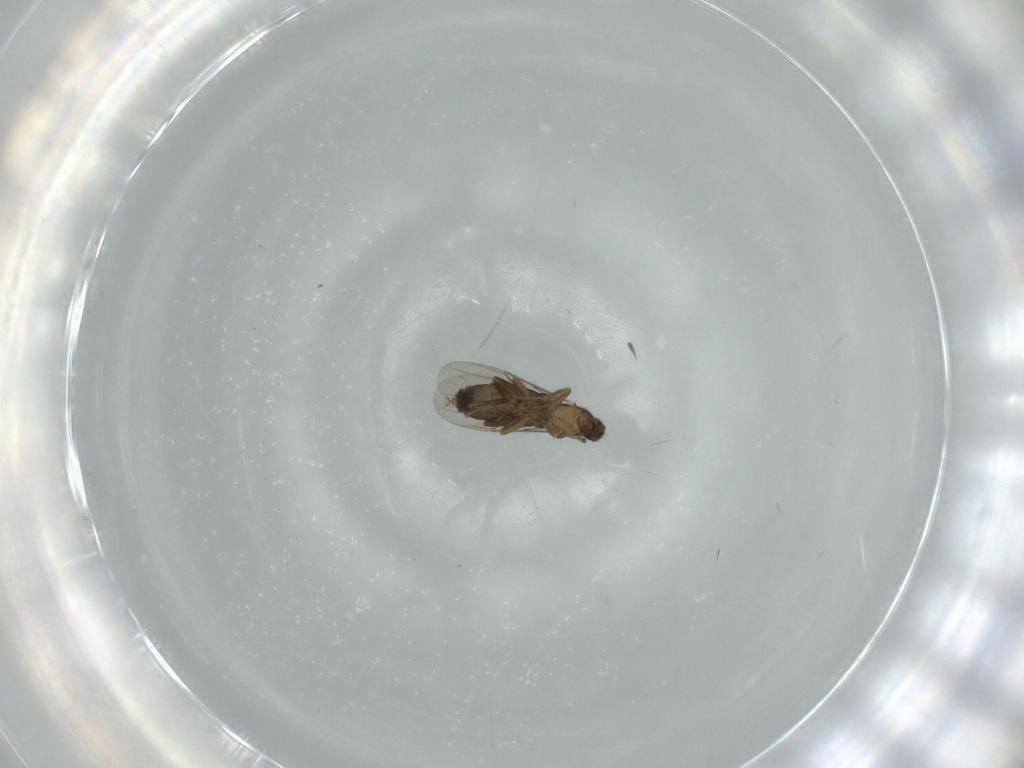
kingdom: Animalia
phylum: Arthropoda
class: Insecta
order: Diptera
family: Phoridae
